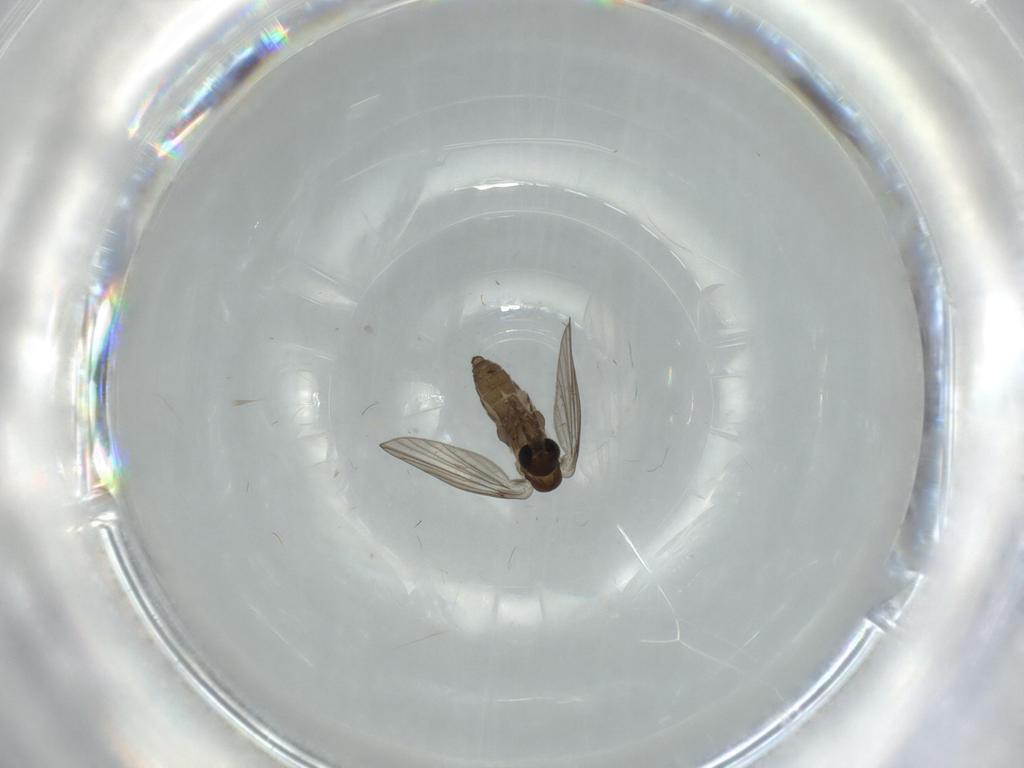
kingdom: Animalia
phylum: Arthropoda
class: Insecta
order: Diptera
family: Psychodidae
